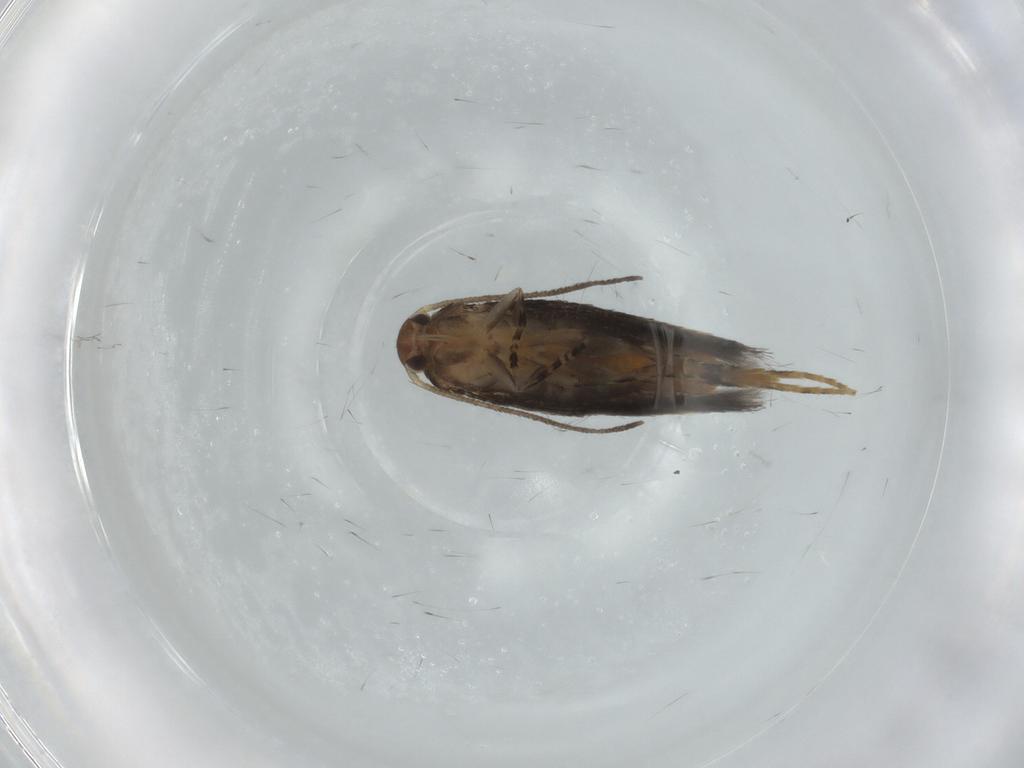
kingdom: Animalia
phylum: Arthropoda
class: Insecta
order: Lepidoptera
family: Elachistidae
